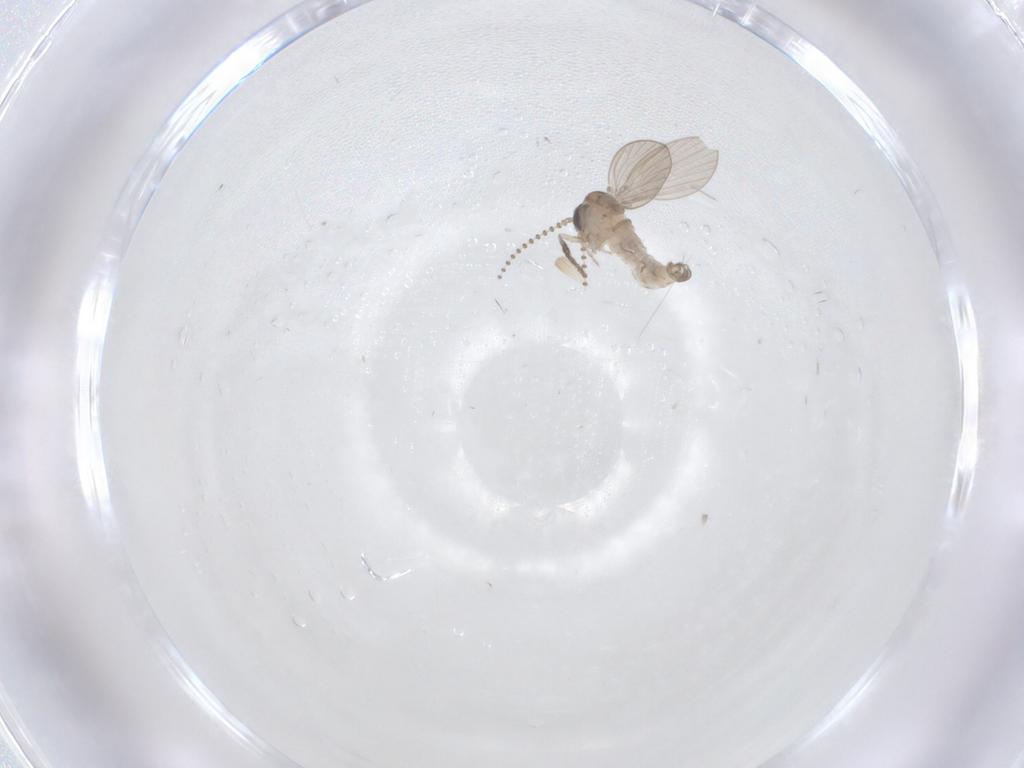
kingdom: Animalia
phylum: Arthropoda
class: Insecta
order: Diptera
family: Psychodidae
